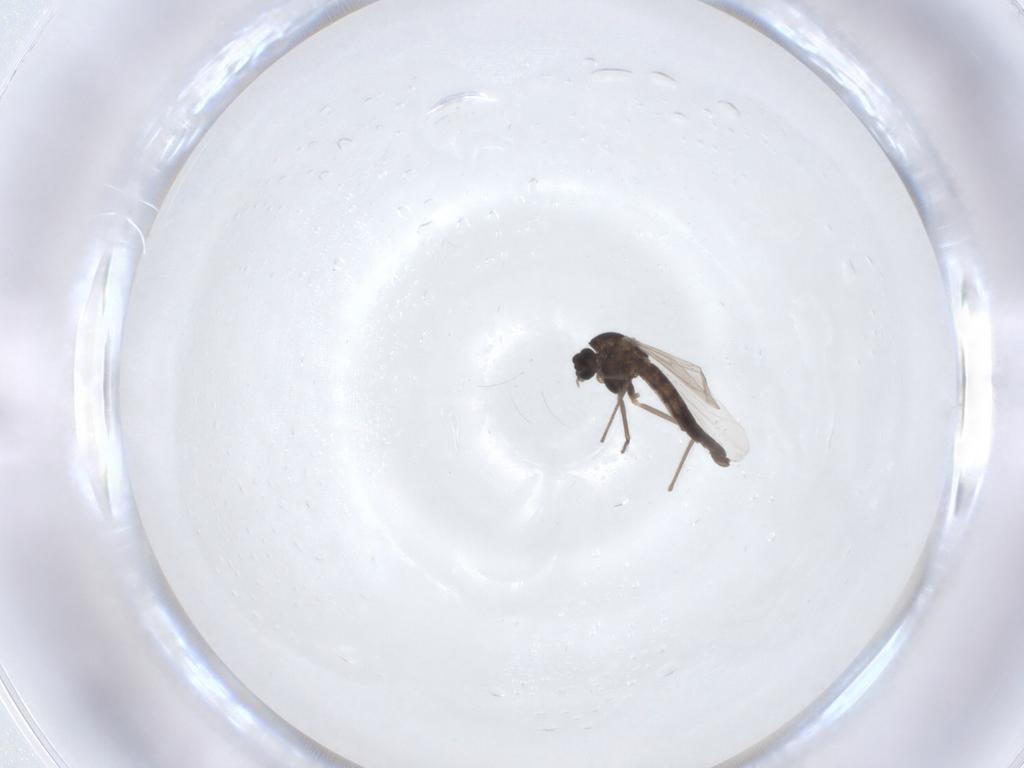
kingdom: Animalia
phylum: Arthropoda
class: Insecta
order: Diptera
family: Chironomidae
